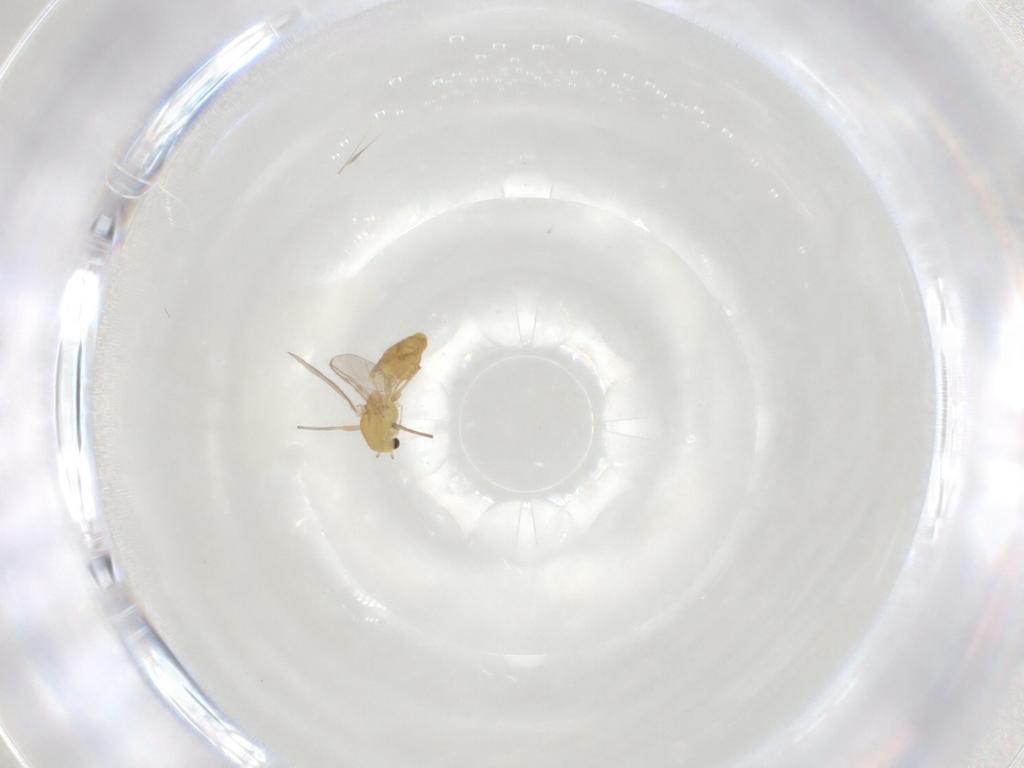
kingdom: Animalia
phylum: Arthropoda
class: Insecta
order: Diptera
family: Chironomidae
